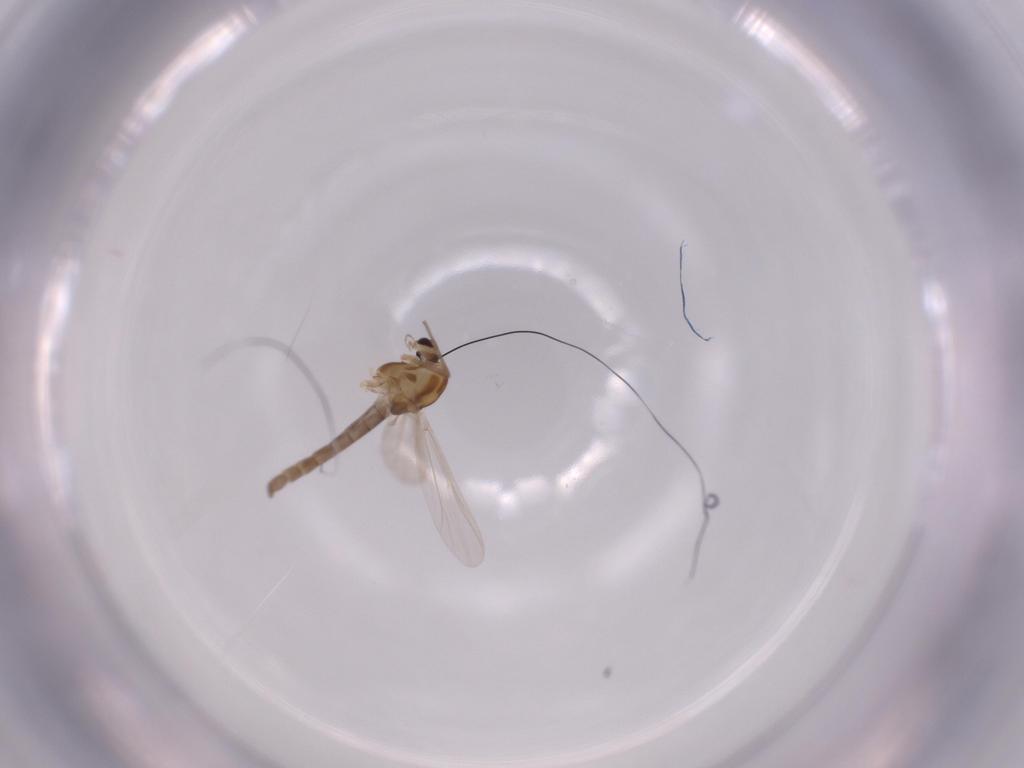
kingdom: Animalia
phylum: Arthropoda
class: Insecta
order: Diptera
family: Chironomidae
